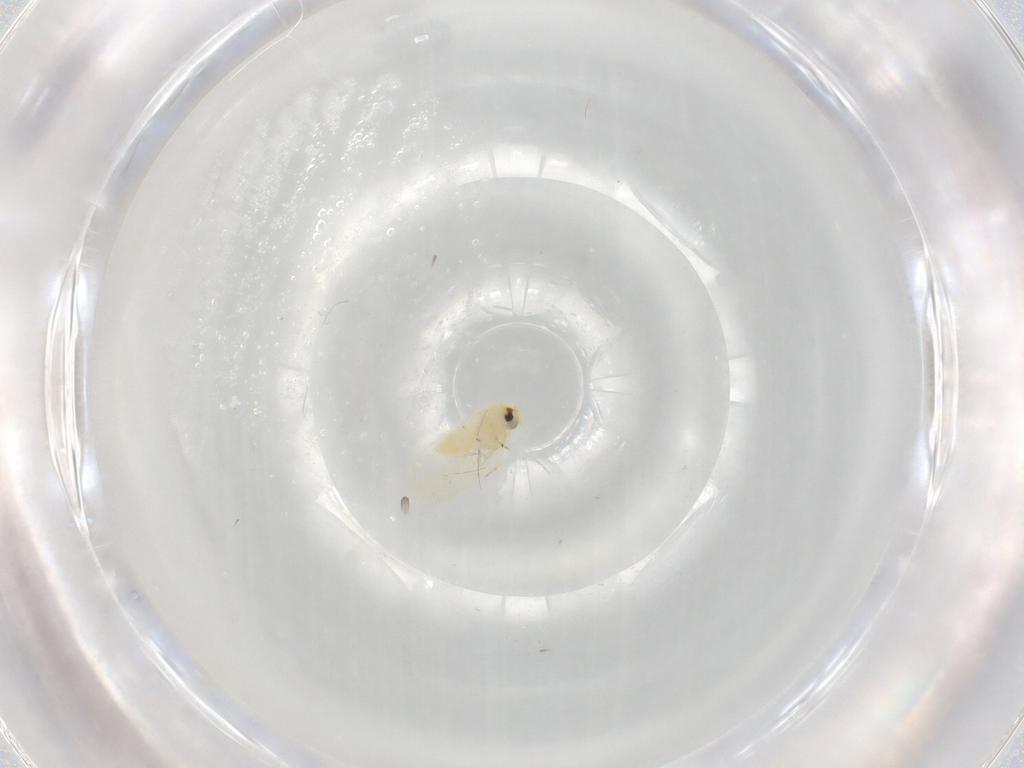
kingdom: Animalia
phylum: Arthropoda
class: Insecta
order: Hemiptera
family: Aleyrodidae
